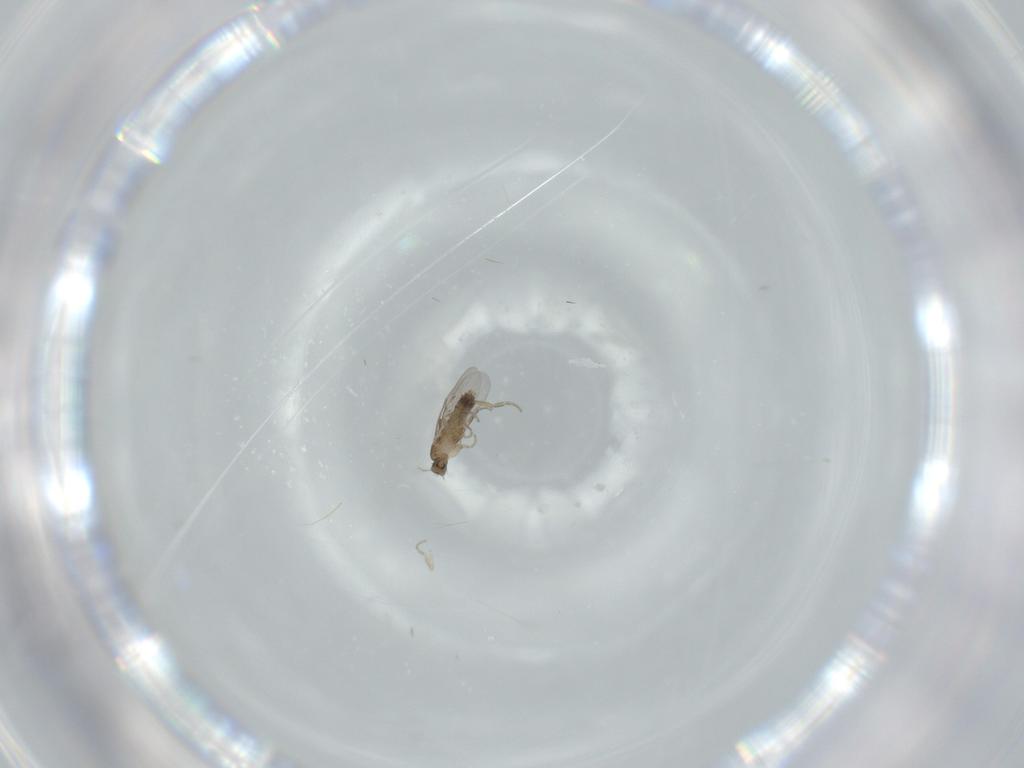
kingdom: Animalia
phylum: Arthropoda
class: Insecta
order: Diptera
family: Phoridae
